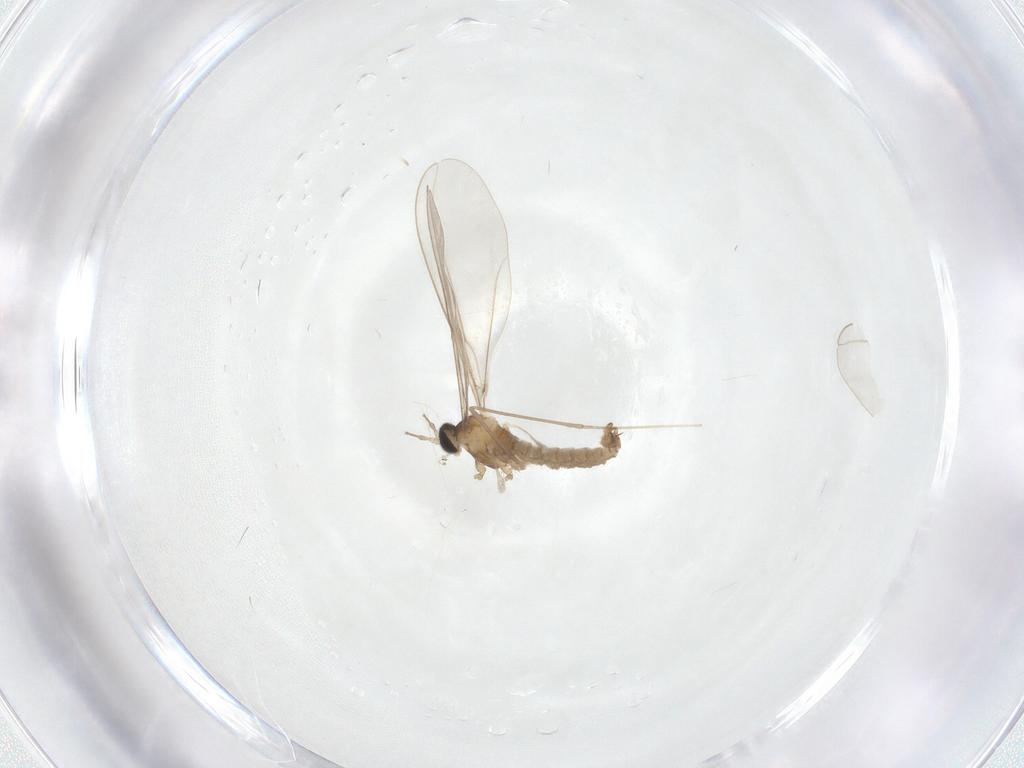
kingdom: Animalia
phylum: Arthropoda
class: Insecta
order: Diptera
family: Cecidomyiidae
